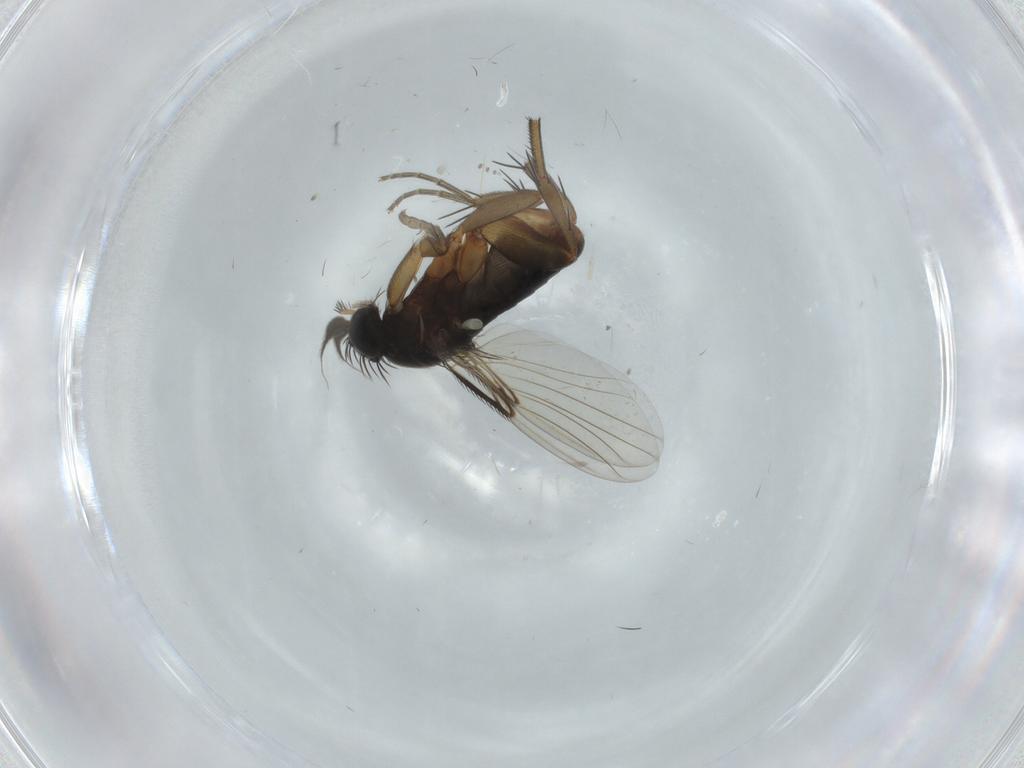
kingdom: Animalia
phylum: Arthropoda
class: Insecta
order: Diptera
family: Phoridae
